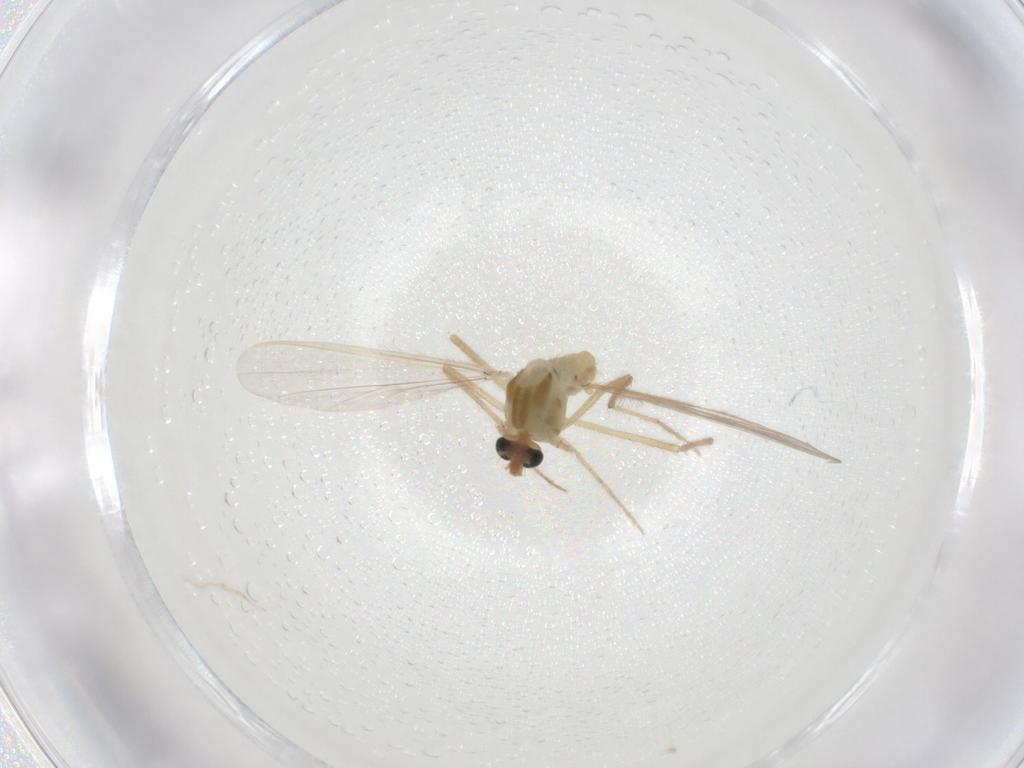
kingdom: Animalia
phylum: Arthropoda
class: Insecta
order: Diptera
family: Chironomidae
